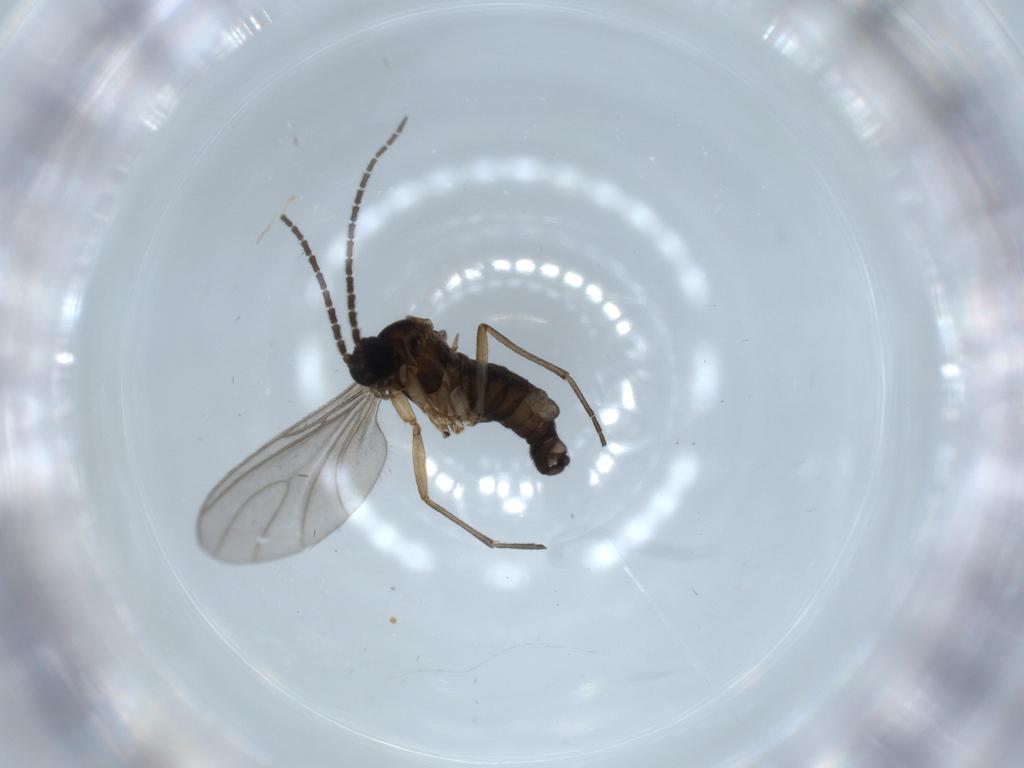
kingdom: Animalia
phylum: Arthropoda
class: Insecta
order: Diptera
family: Sciaridae
